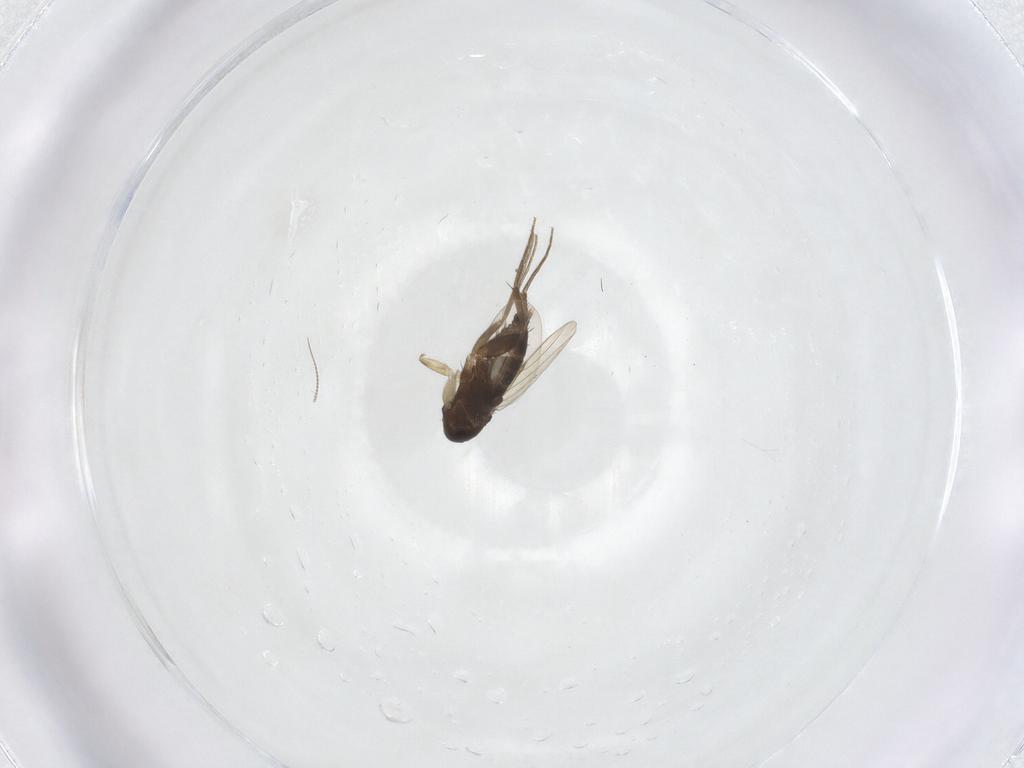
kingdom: Animalia
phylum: Arthropoda
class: Insecta
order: Diptera
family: Phoridae
